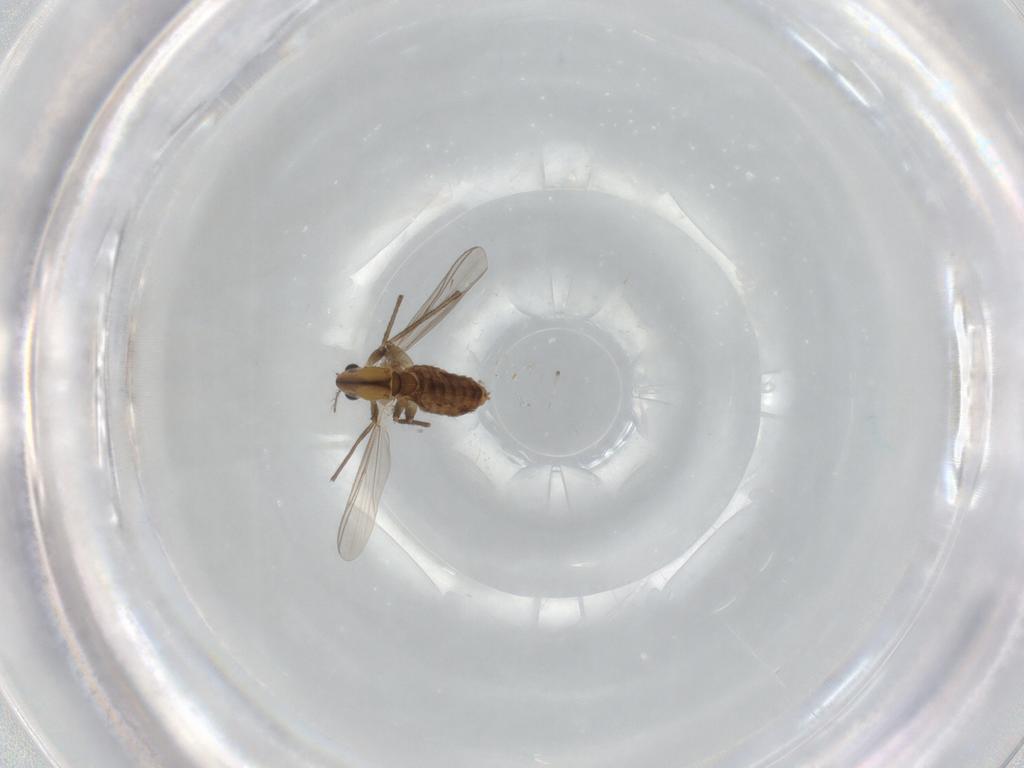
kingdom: Animalia
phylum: Arthropoda
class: Insecta
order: Diptera
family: Chironomidae
